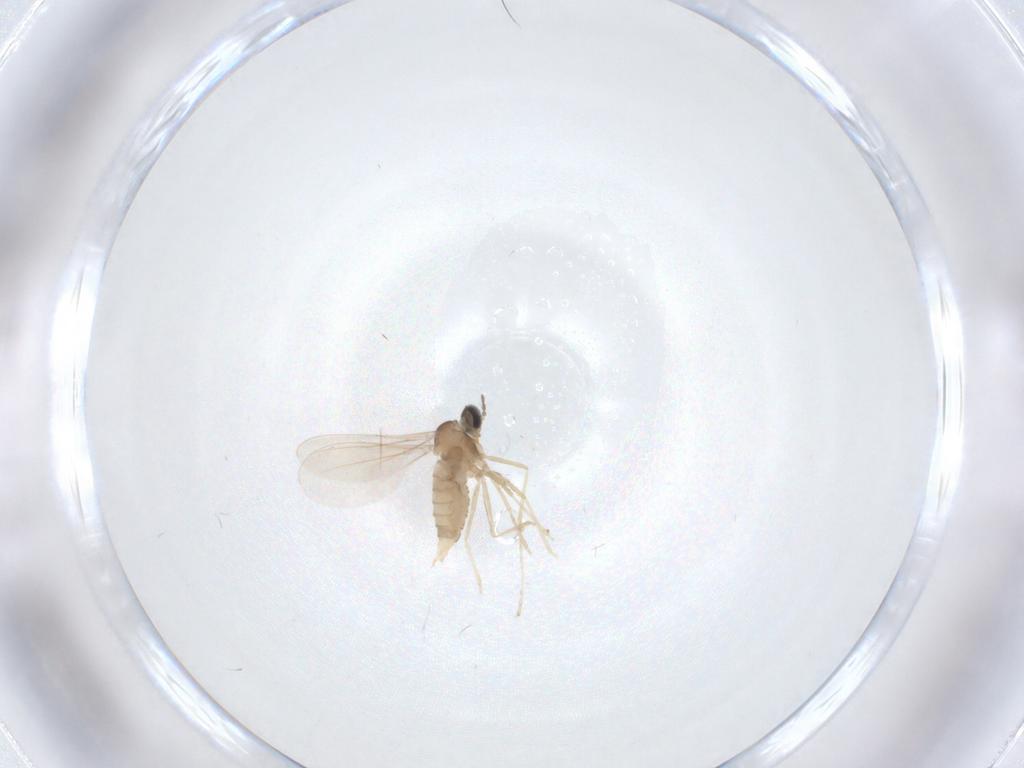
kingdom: Animalia
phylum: Arthropoda
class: Insecta
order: Diptera
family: Cecidomyiidae
